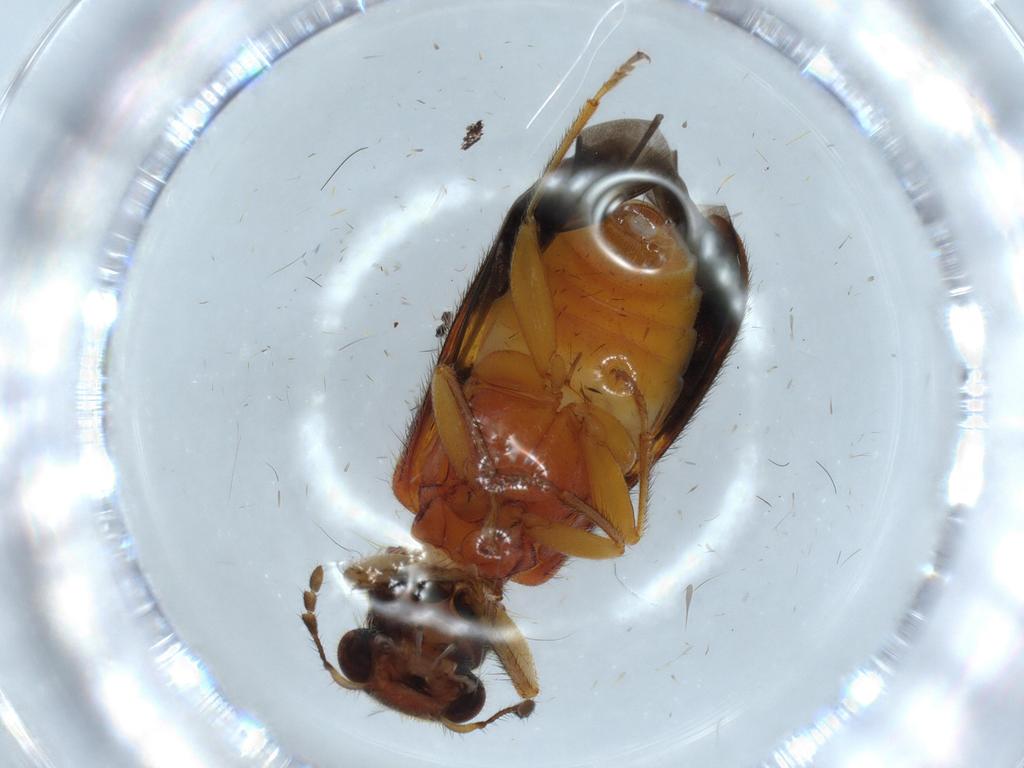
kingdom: Animalia
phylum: Arthropoda
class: Insecta
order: Coleoptera
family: Cleridae
